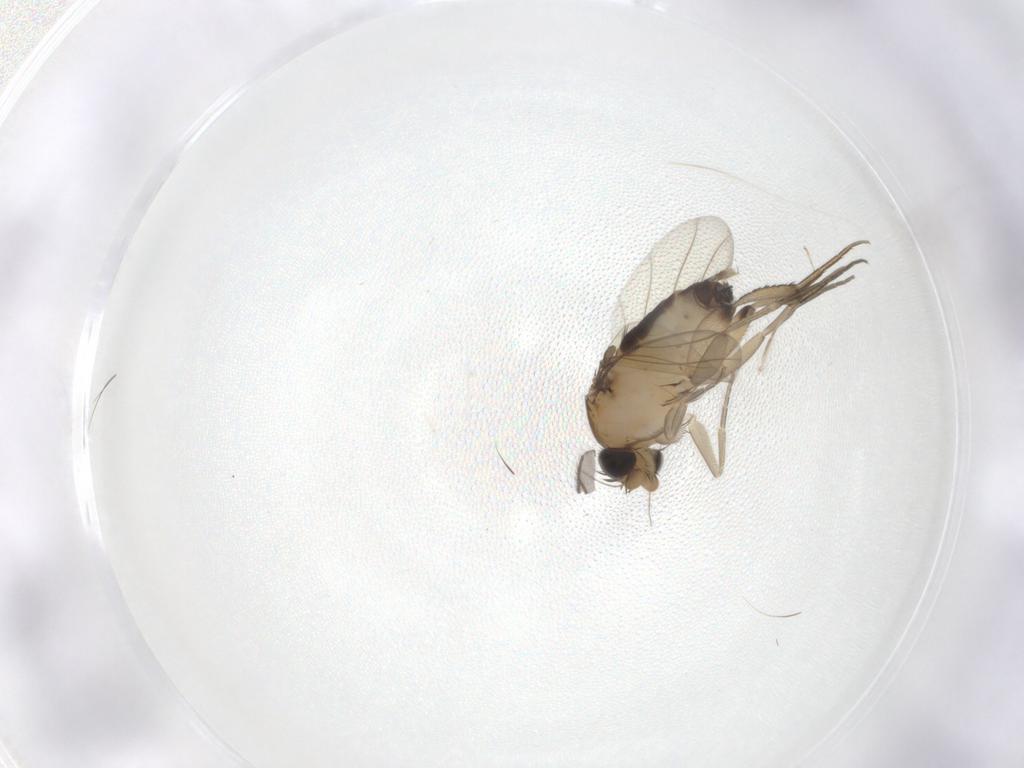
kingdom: Animalia
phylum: Arthropoda
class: Insecta
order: Diptera
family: Phoridae
